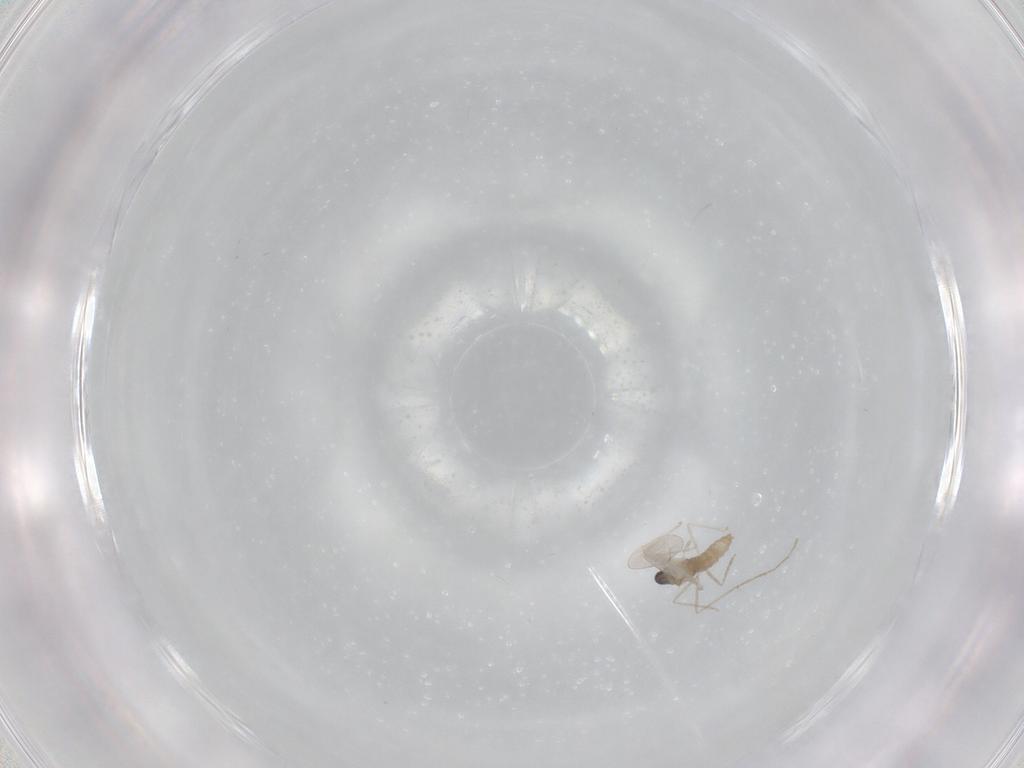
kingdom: Animalia
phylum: Arthropoda
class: Insecta
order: Diptera
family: Cecidomyiidae
